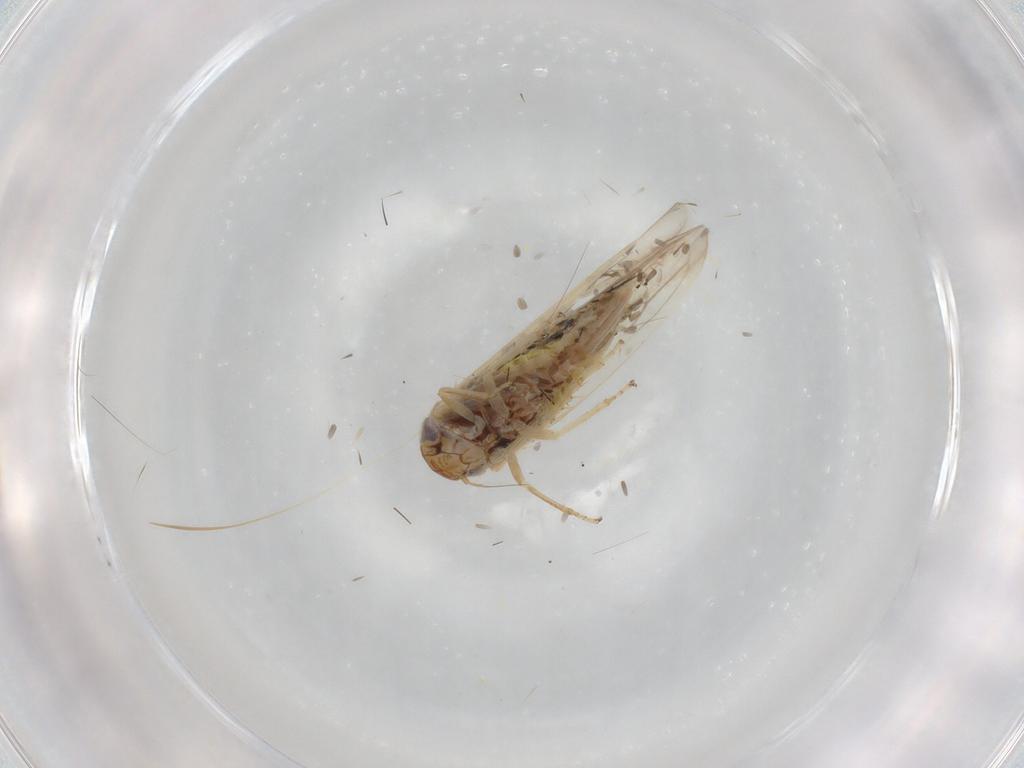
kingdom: Animalia
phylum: Arthropoda
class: Insecta
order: Hemiptera
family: Cicadellidae
